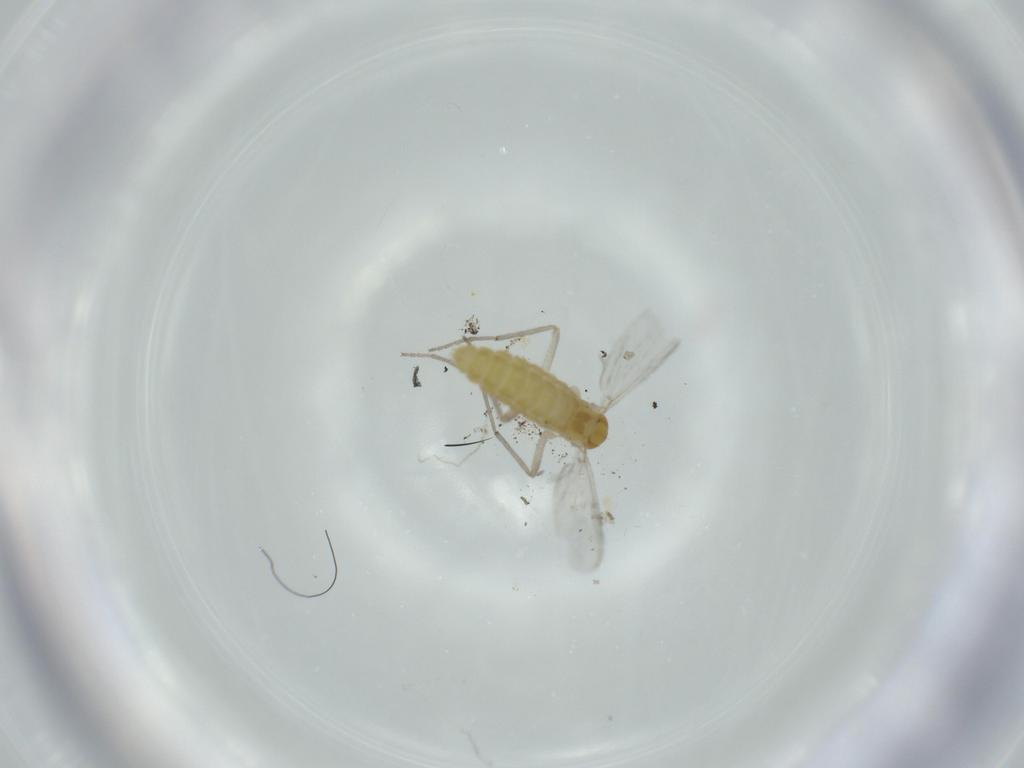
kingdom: Animalia
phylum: Arthropoda
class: Insecta
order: Diptera
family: Chironomidae
